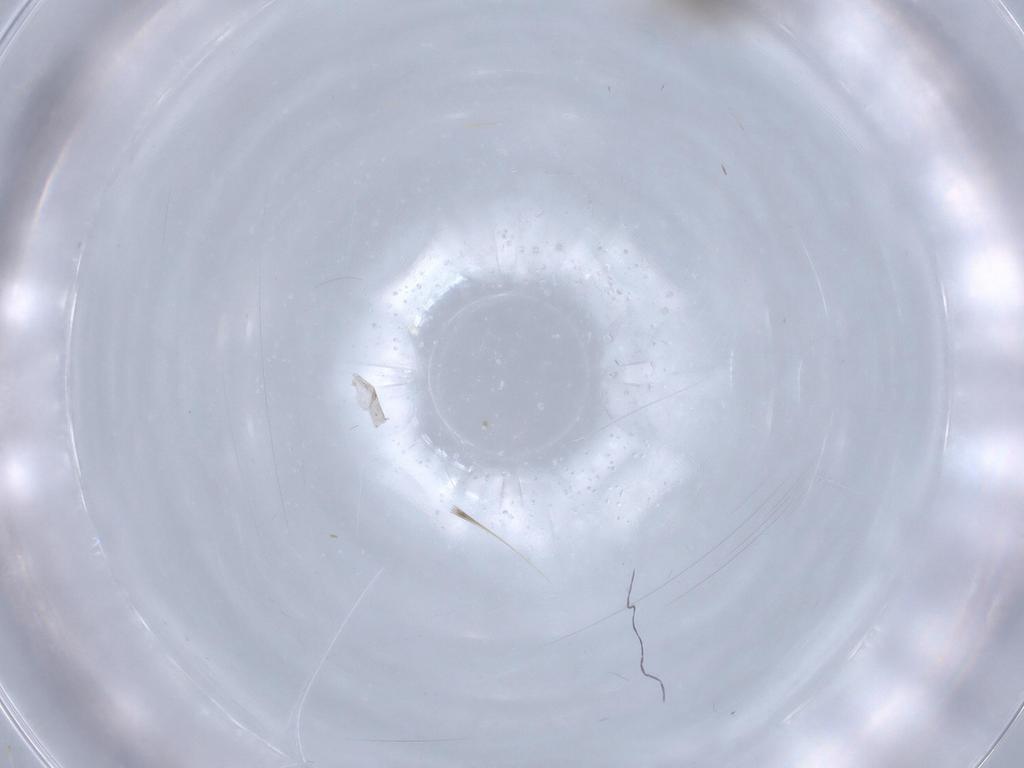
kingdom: Animalia
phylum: Arthropoda
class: Insecta
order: Diptera
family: Chironomidae
